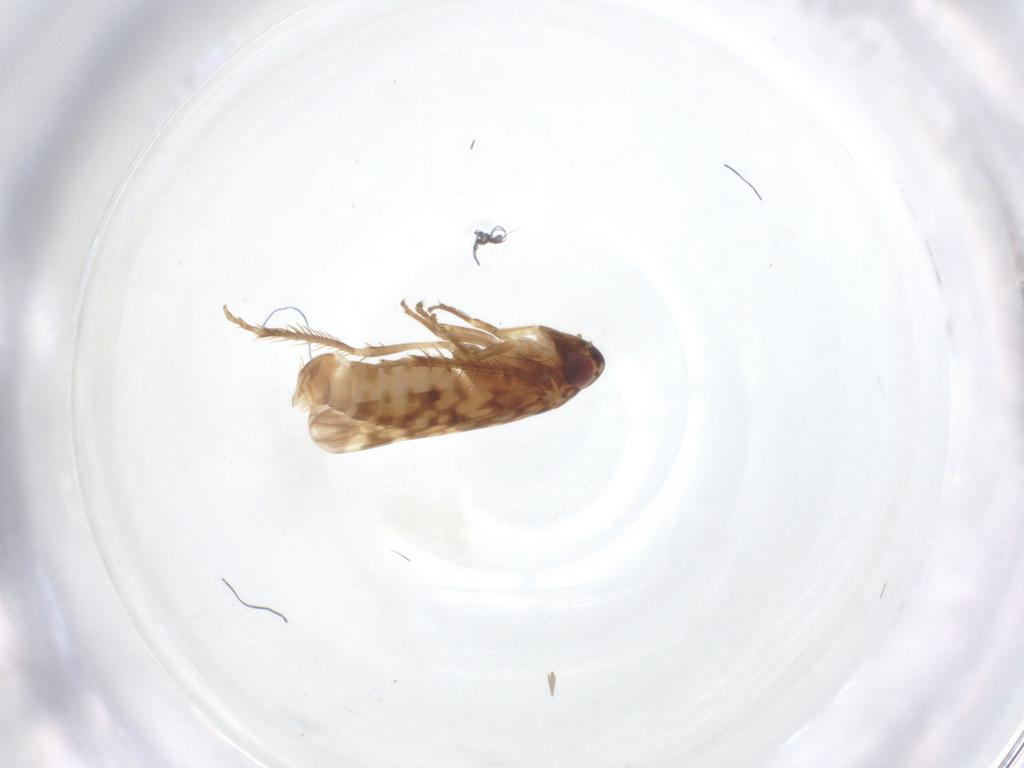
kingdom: Animalia
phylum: Arthropoda
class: Insecta
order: Hemiptera
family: Cicadellidae
